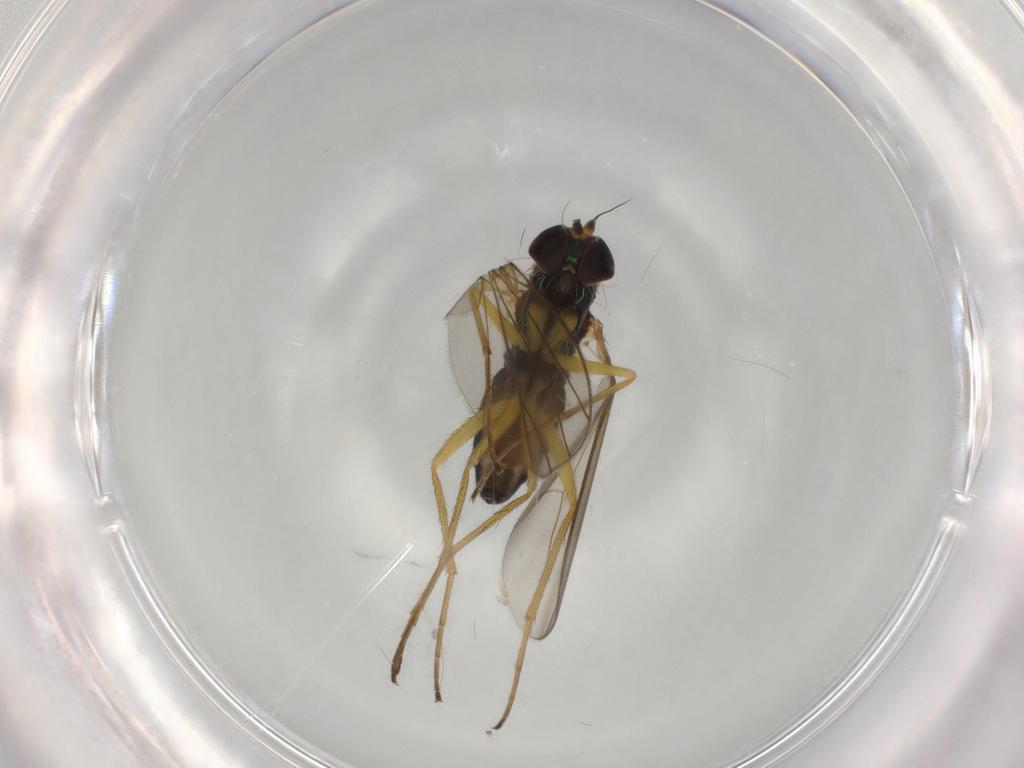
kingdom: Animalia
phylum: Arthropoda
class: Insecta
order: Diptera
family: Dolichopodidae
